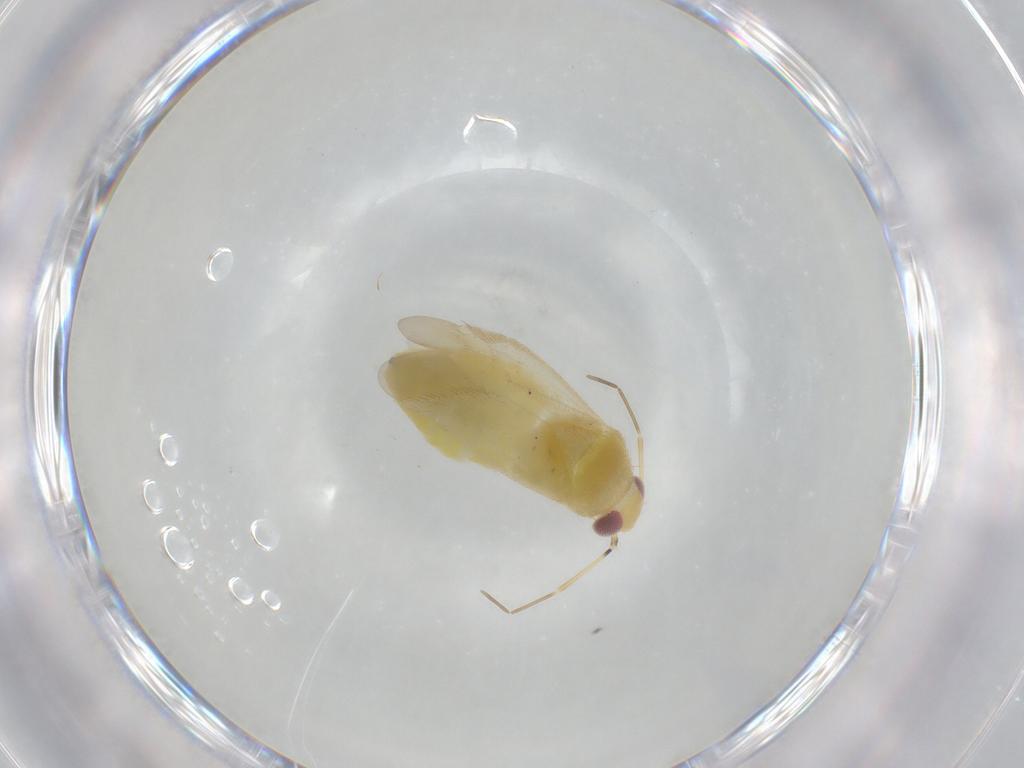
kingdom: Animalia
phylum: Arthropoda
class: Insecta
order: Hemiptera
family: Miridae
